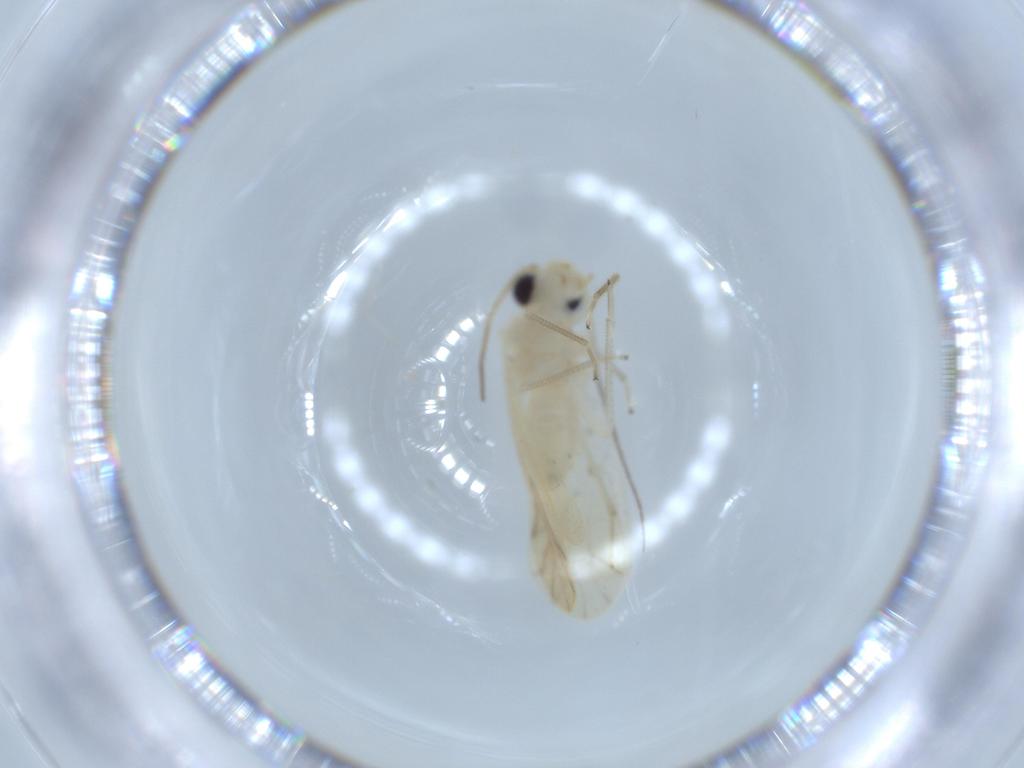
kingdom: Animalia
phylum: Arthropoda
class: Insecta
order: Psocodea
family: Caeciliusidae
